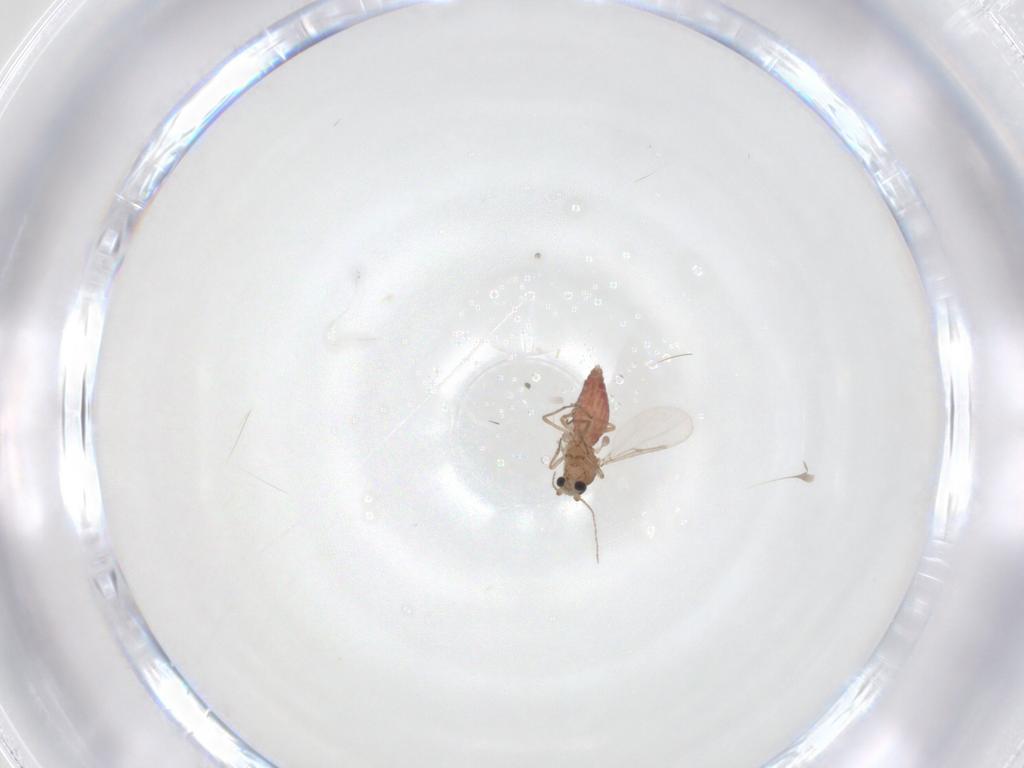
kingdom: Animalia
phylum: Arthropoda
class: Insecta
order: Diptera
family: Ceratopogonidae
